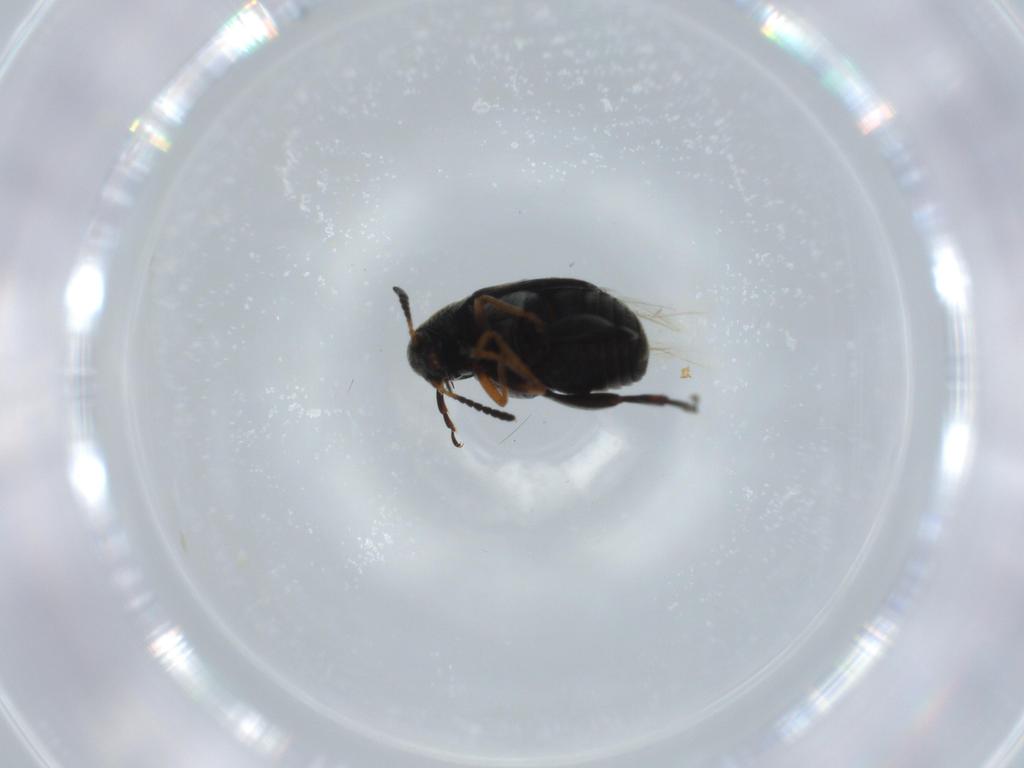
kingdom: Animalia
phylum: Arthropoda
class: Insecta
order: Coleoptera
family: Chrysomelidae
